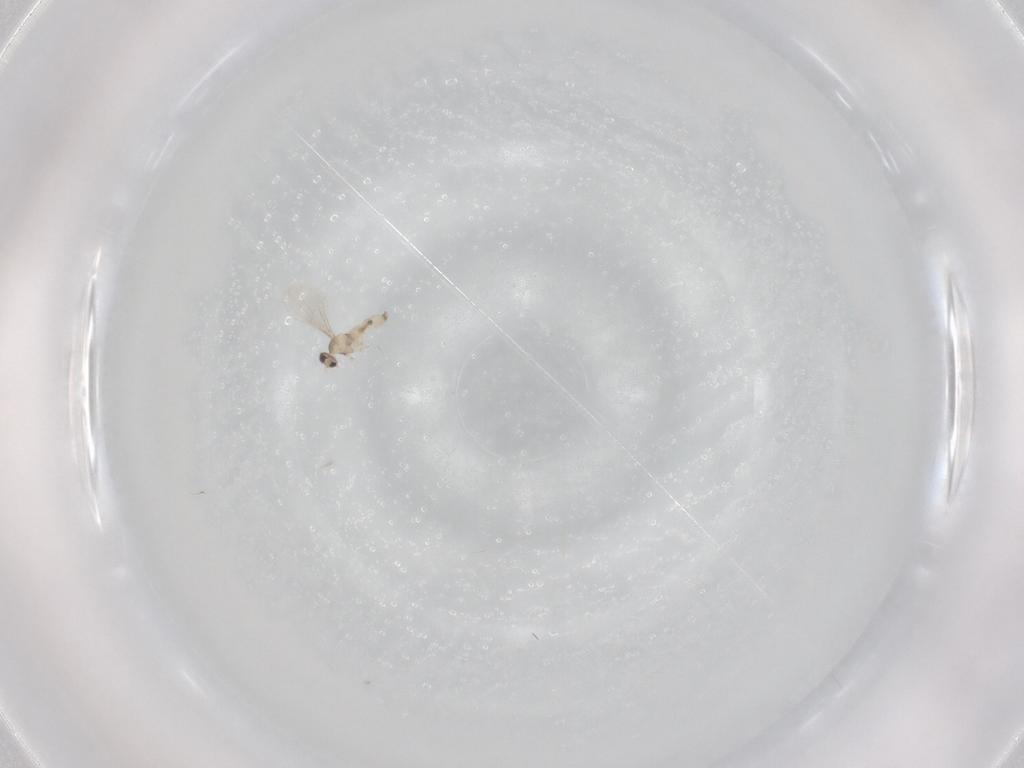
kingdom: Animalia
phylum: Arthropoda
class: Insecta
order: Diptera
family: Cecidomyiidae
